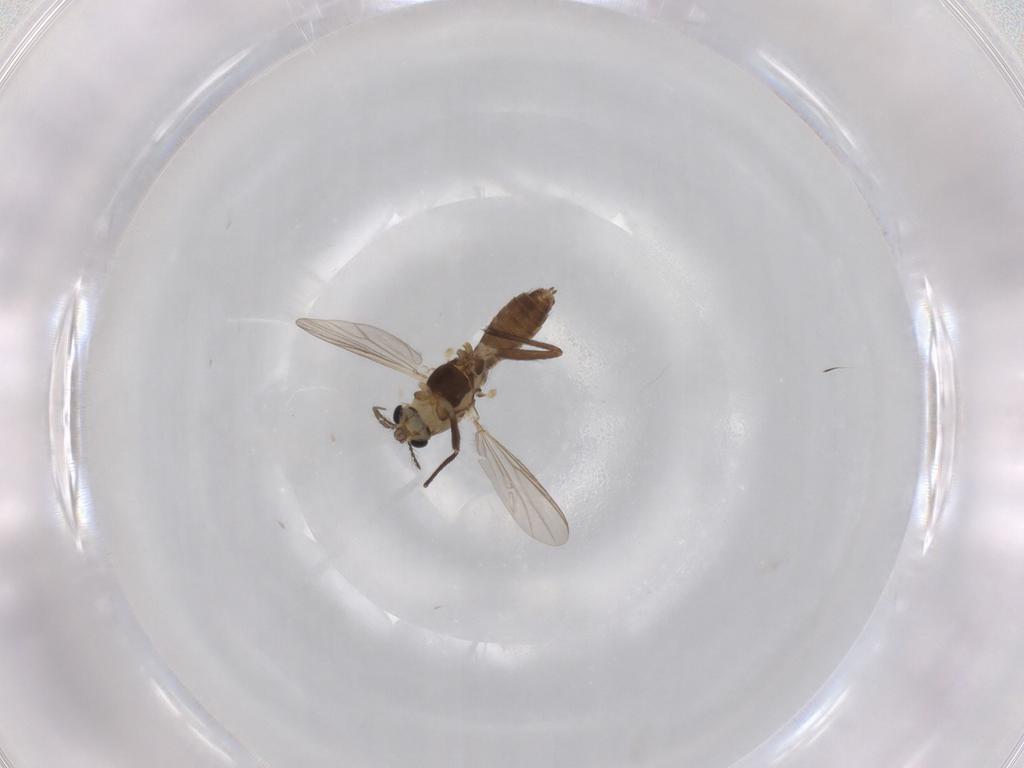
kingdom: Animalia
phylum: Arthropoda
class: Insecta
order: Diptera
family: Chironomidae
